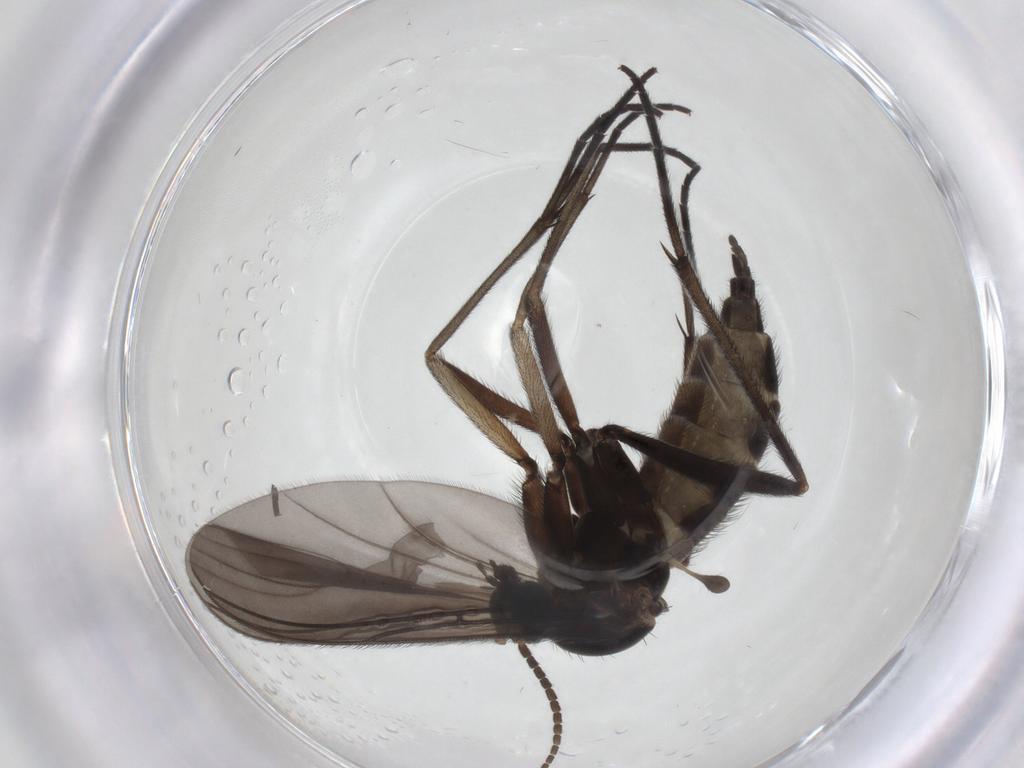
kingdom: Animalia
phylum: Arthropoda
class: Insecta
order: Diptera
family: Sciaridae
